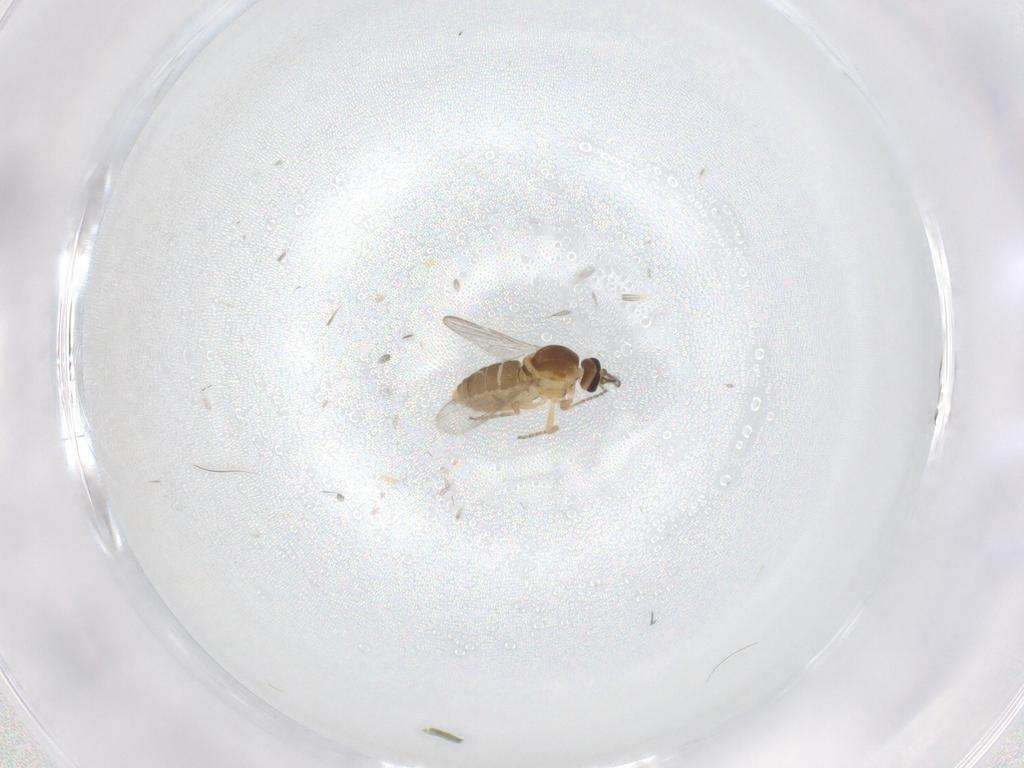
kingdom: Animalia
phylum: Arthropoda
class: Insecta
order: Diptera
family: Ceratopogonidae
